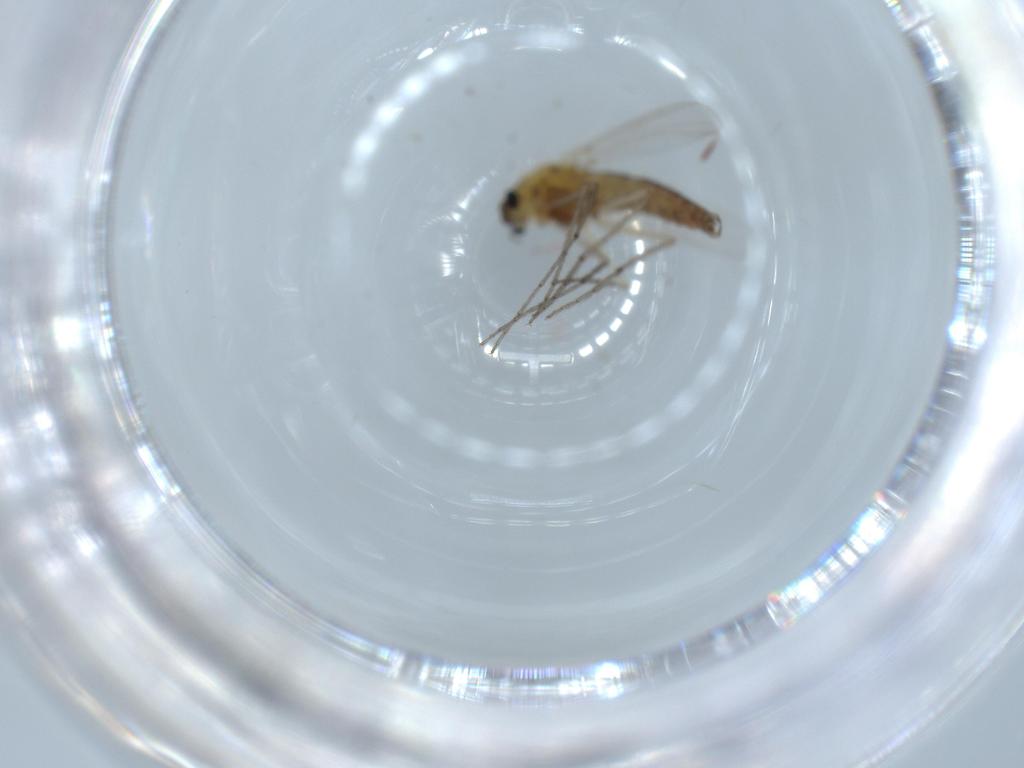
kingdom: Animalia
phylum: Arthropoda
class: Insecta
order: Diptera
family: Chironomidae
